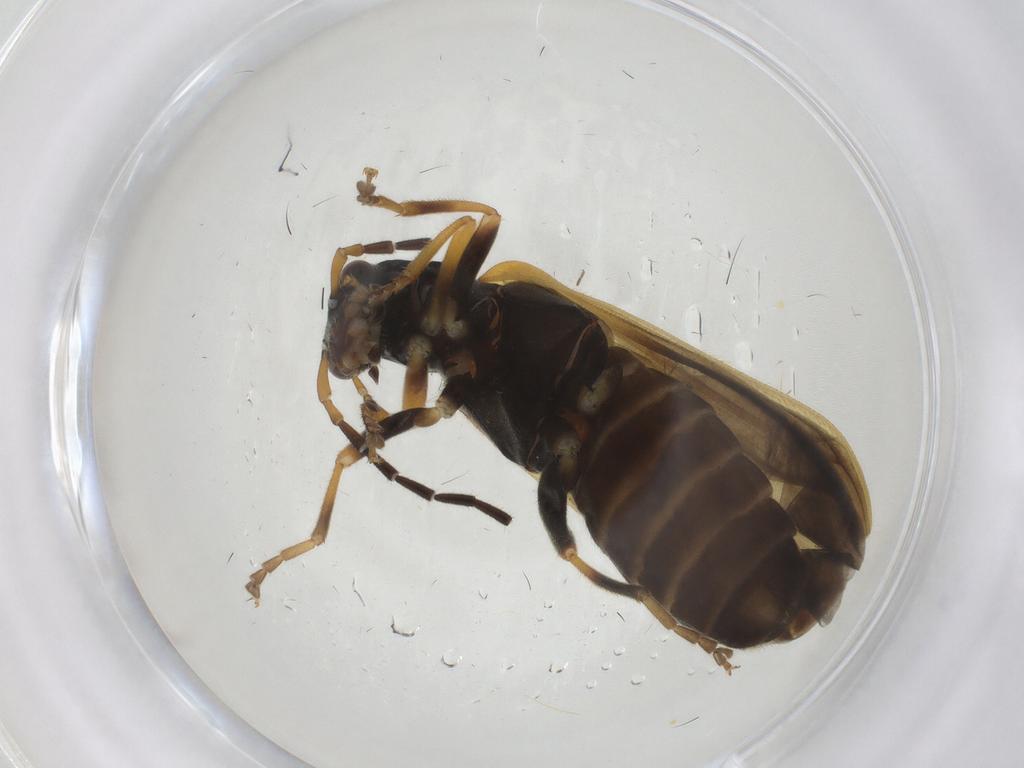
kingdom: Animalia
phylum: Arthropoda
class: Insecta
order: Coleoptera
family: Cantharidae
